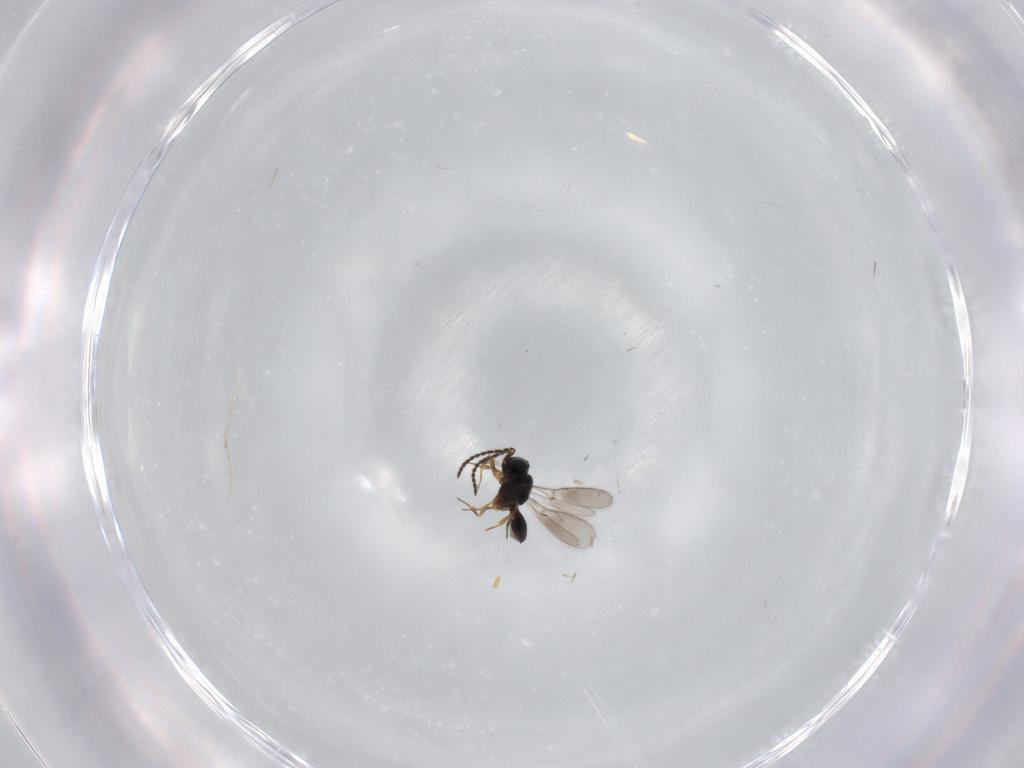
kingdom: Animalia
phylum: Arthropoda
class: Insecta
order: Hymenoptera
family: Scelionidae
